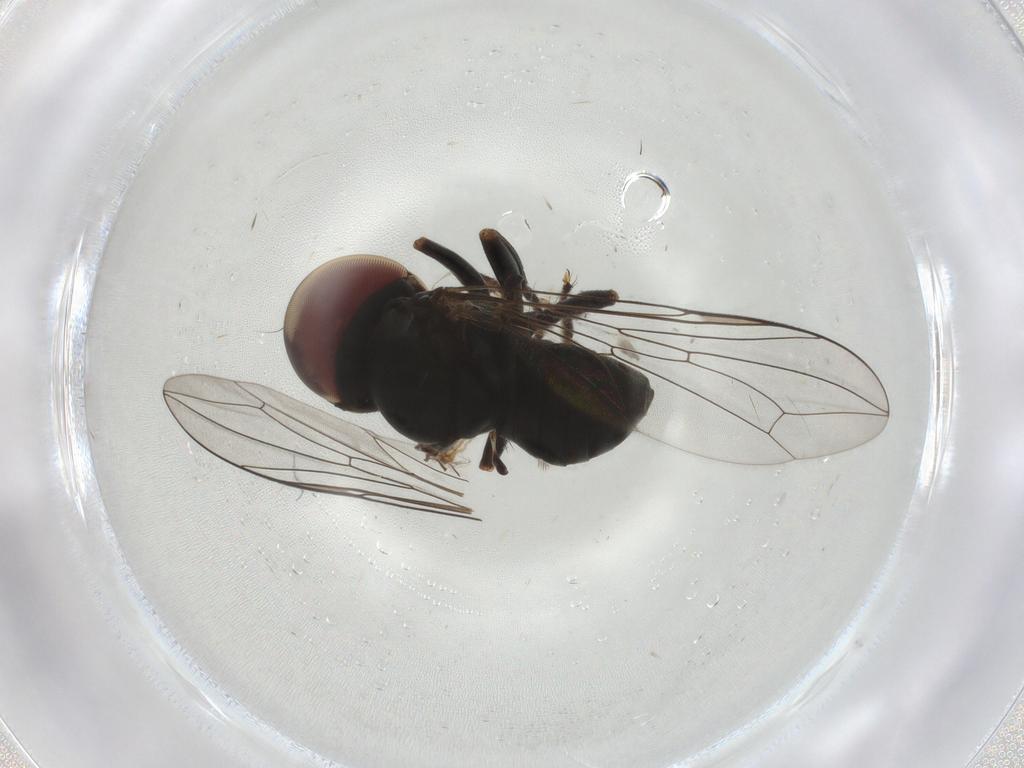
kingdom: Animalia
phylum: Arthropoda
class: Insecta
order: Diptera
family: Pipunculidae
